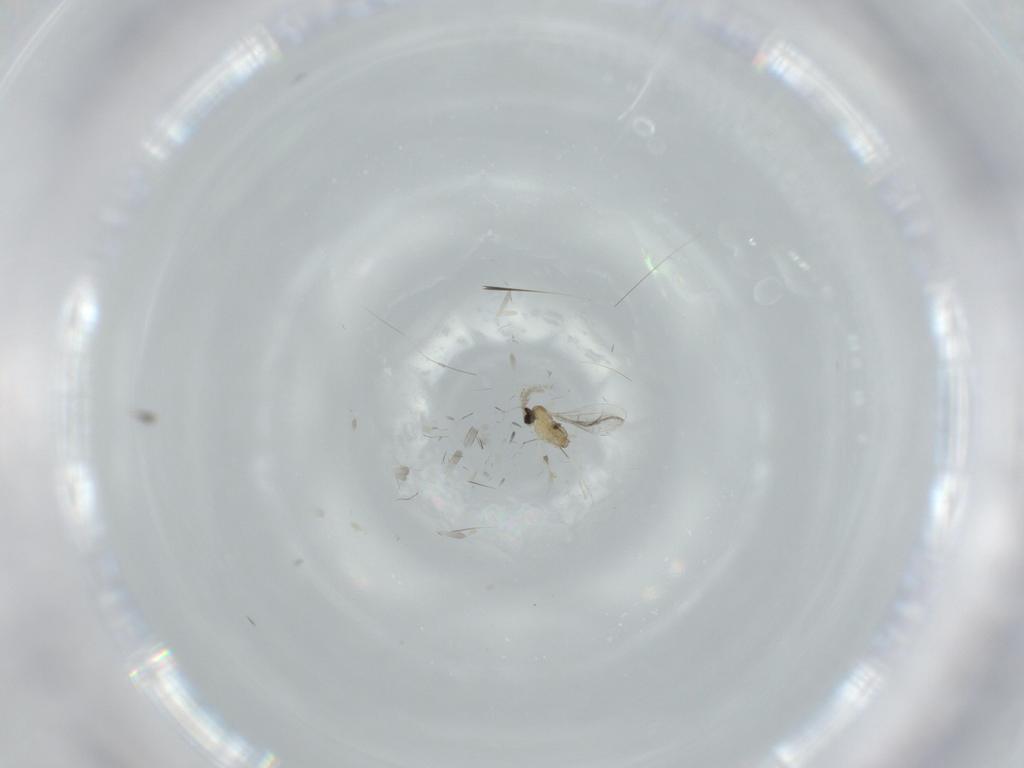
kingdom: Animalia
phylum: Arthropoda
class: Insecta
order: Diptera
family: Cecidomyiidae
